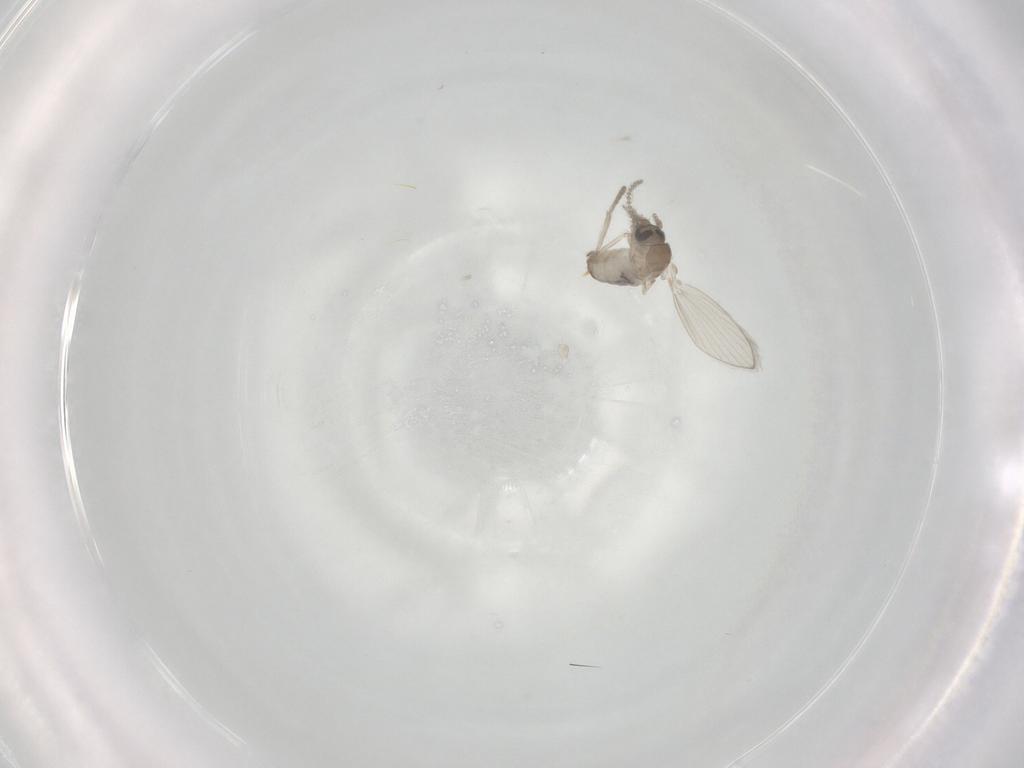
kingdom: Animalia
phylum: Arthropoda
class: Insecta
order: Diptera
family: Psychodidae
